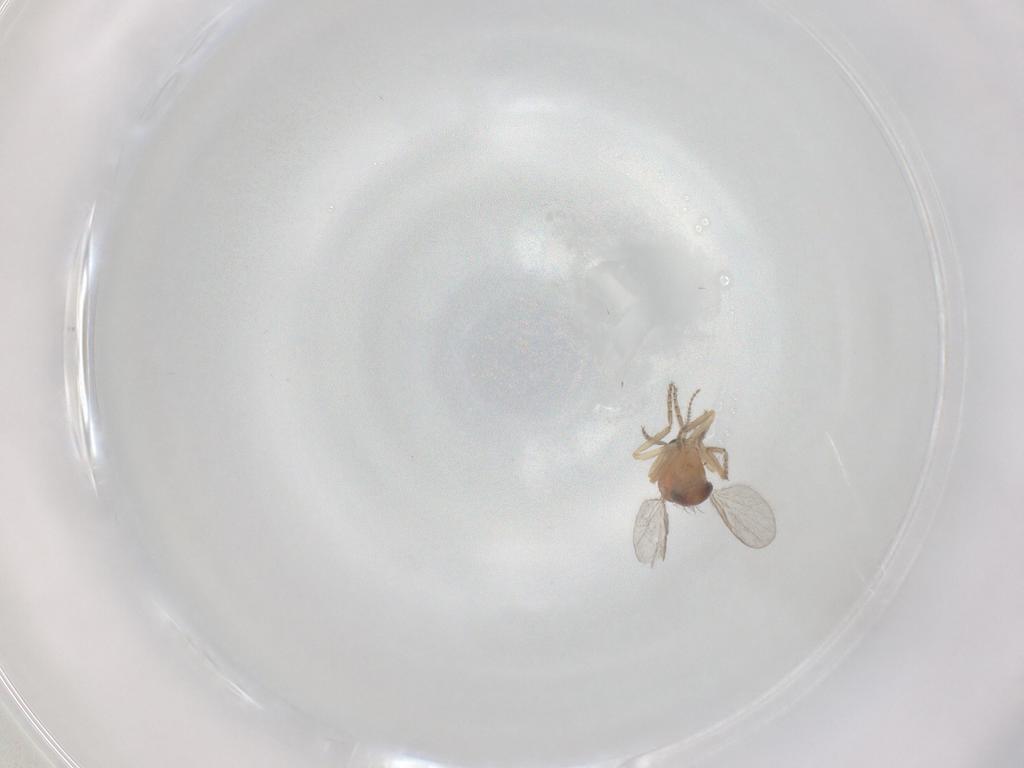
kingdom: Animalia
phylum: Arthropoda
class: Insecta
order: Diptera
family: Ceratopogonidae
